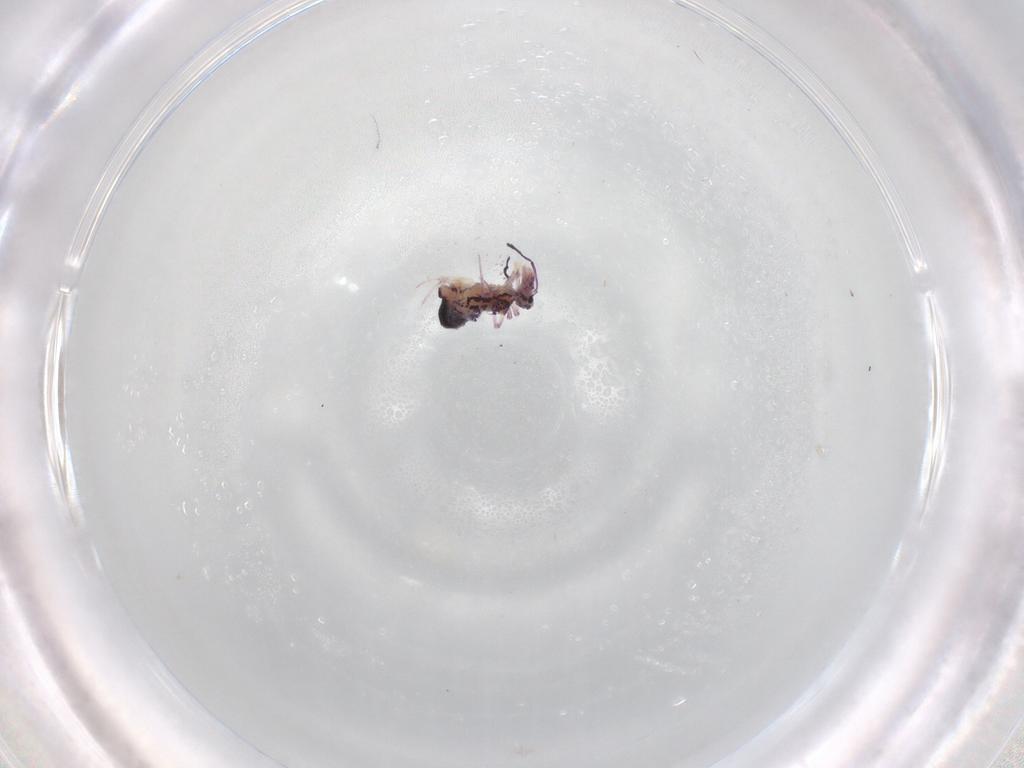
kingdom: Animalia
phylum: Arthropoda
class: Collembola
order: Symphypleona
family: Dicyrtomidae
